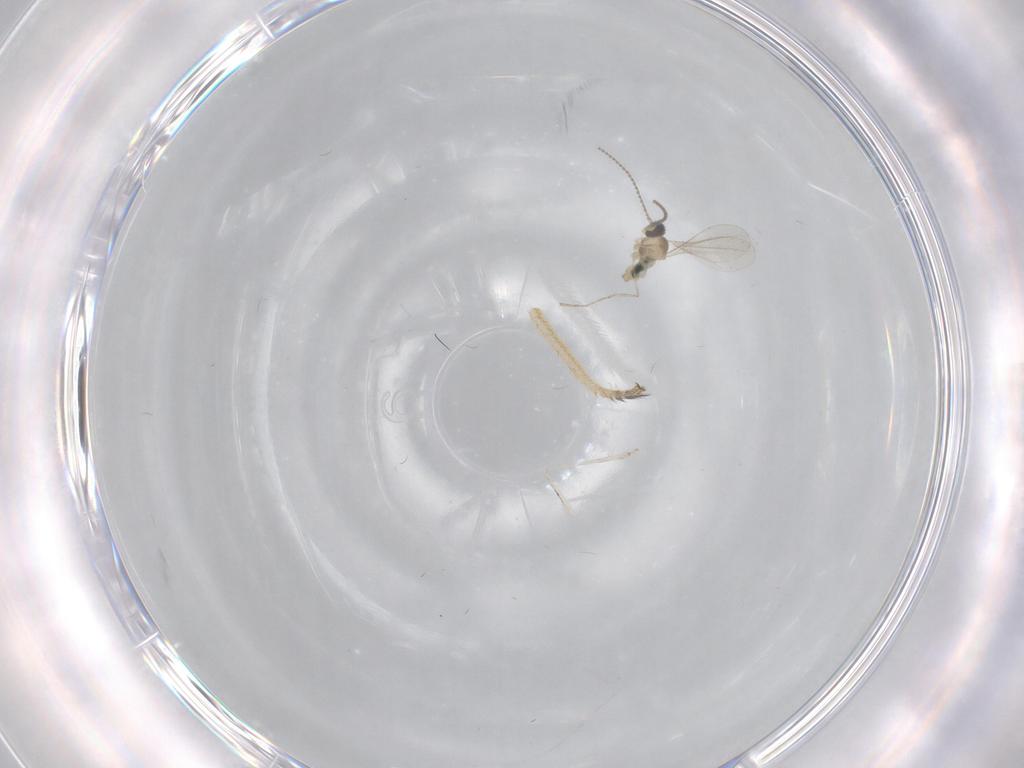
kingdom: Animalia
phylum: Arthropoda
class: Insecta
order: Diptera
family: Cecidomyiidae
